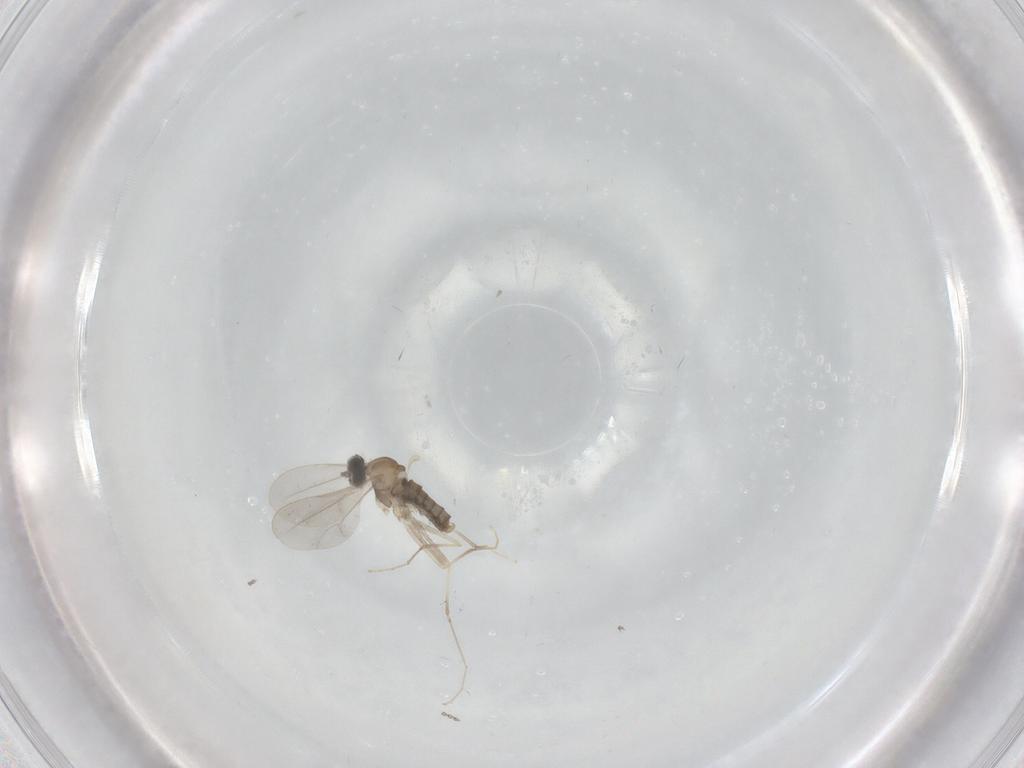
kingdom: Animalia
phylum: Arthropoda
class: Insecta
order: Diptera
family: Cecidomyiidae
